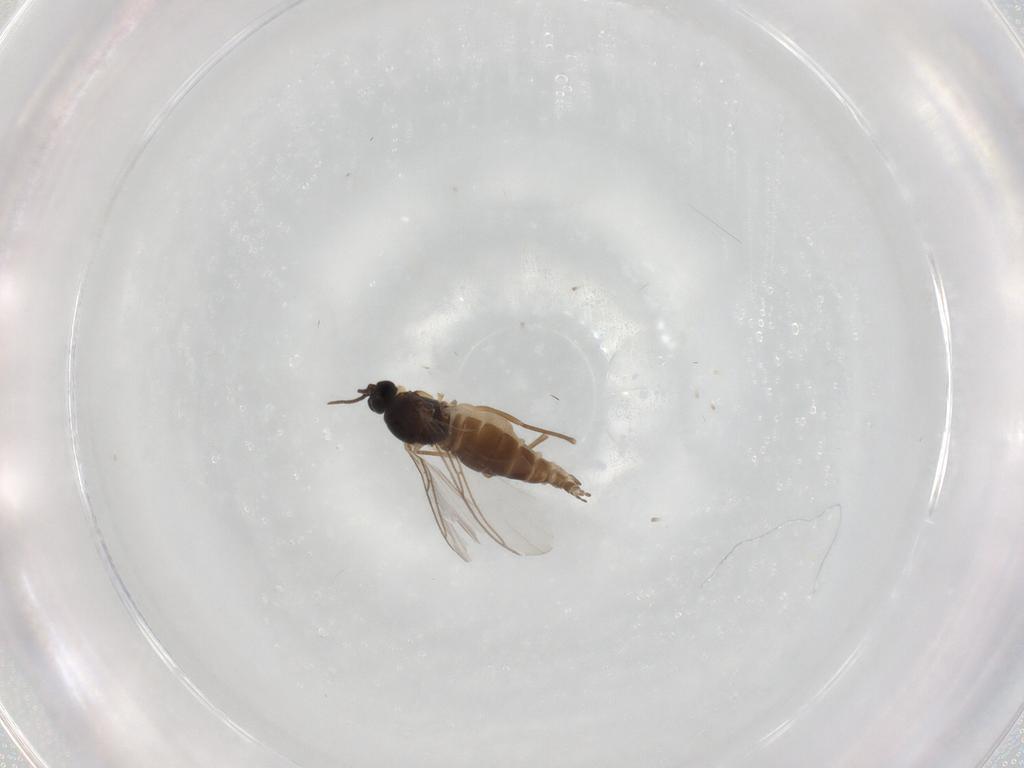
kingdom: Animalia
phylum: Arthropoda
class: Insecta
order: Diptera
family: Sciaridae
